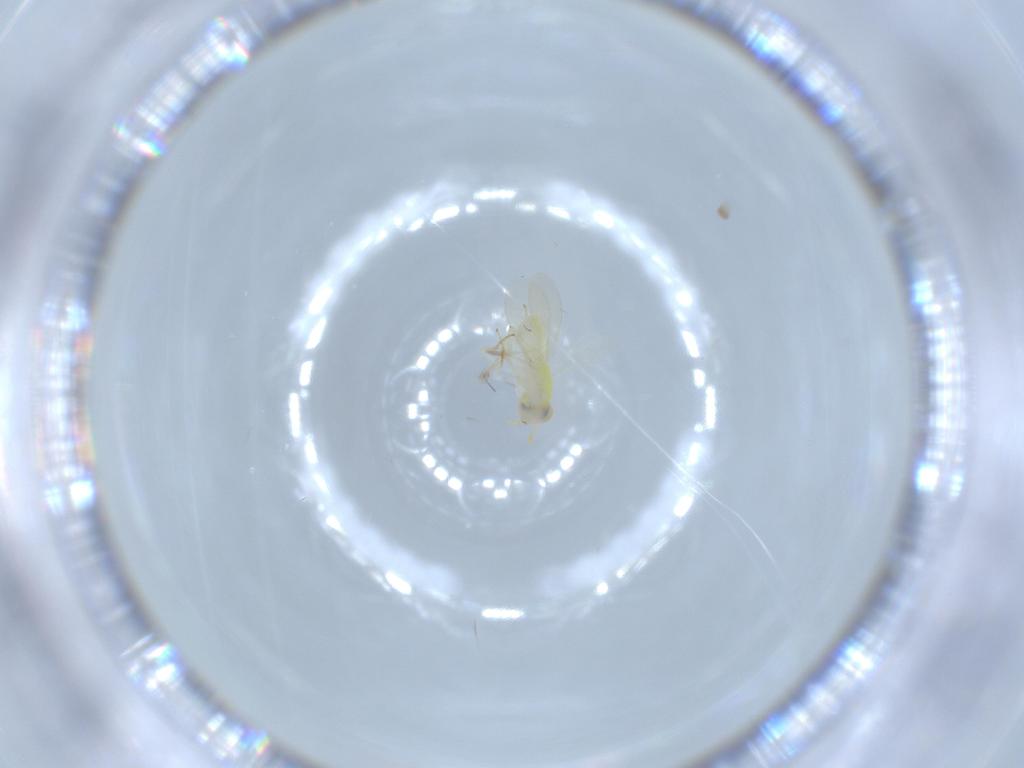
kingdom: Animalia
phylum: Arthropoda
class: Insecta
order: Hymenoptera
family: Aphelinidae
